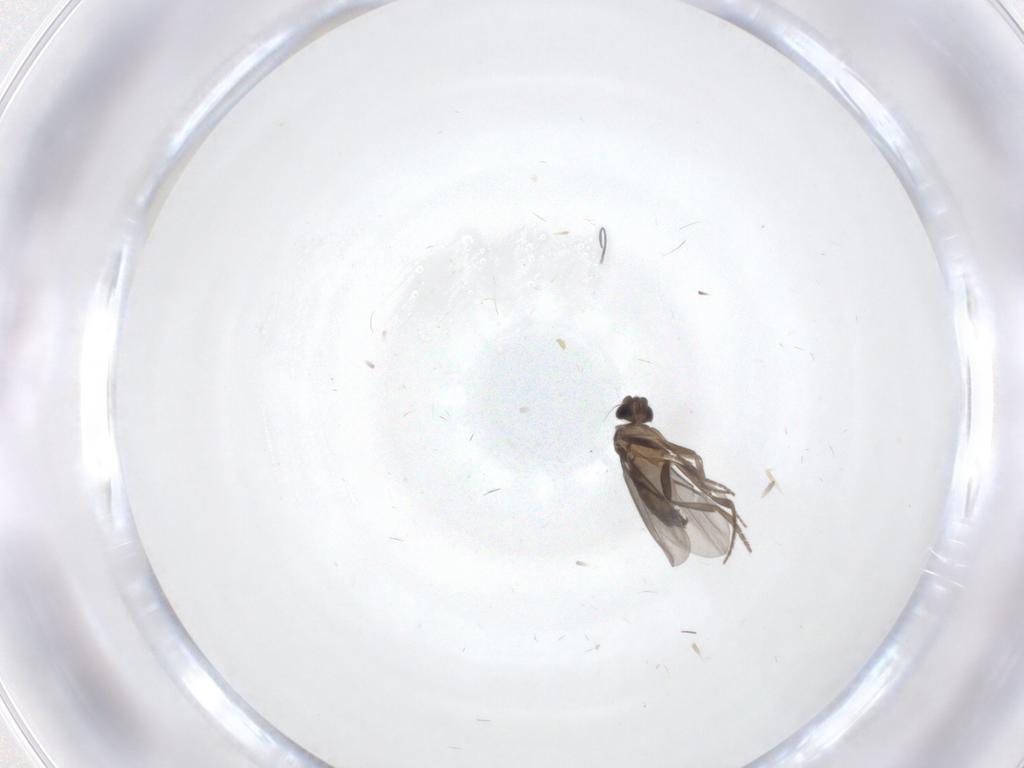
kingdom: Animalia
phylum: Arthropoda
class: Insecta
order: Diptera
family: Phoridae
